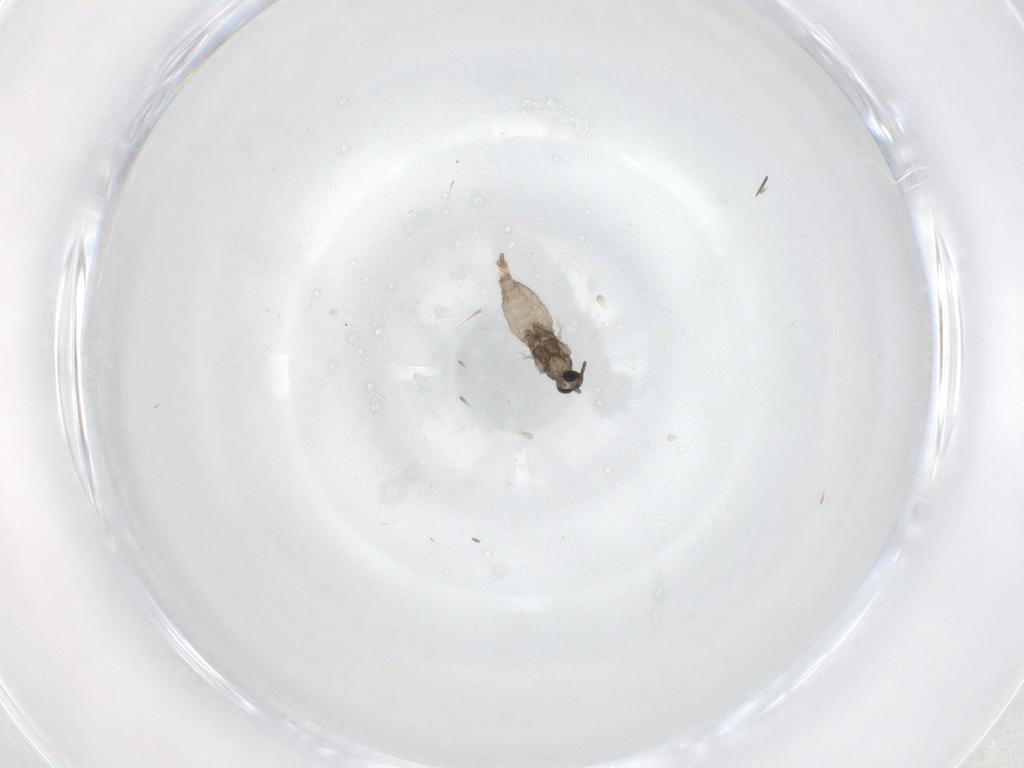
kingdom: Animalia
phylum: Arthropoda
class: Insecta
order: Diptera
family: Cecidomyiidae
